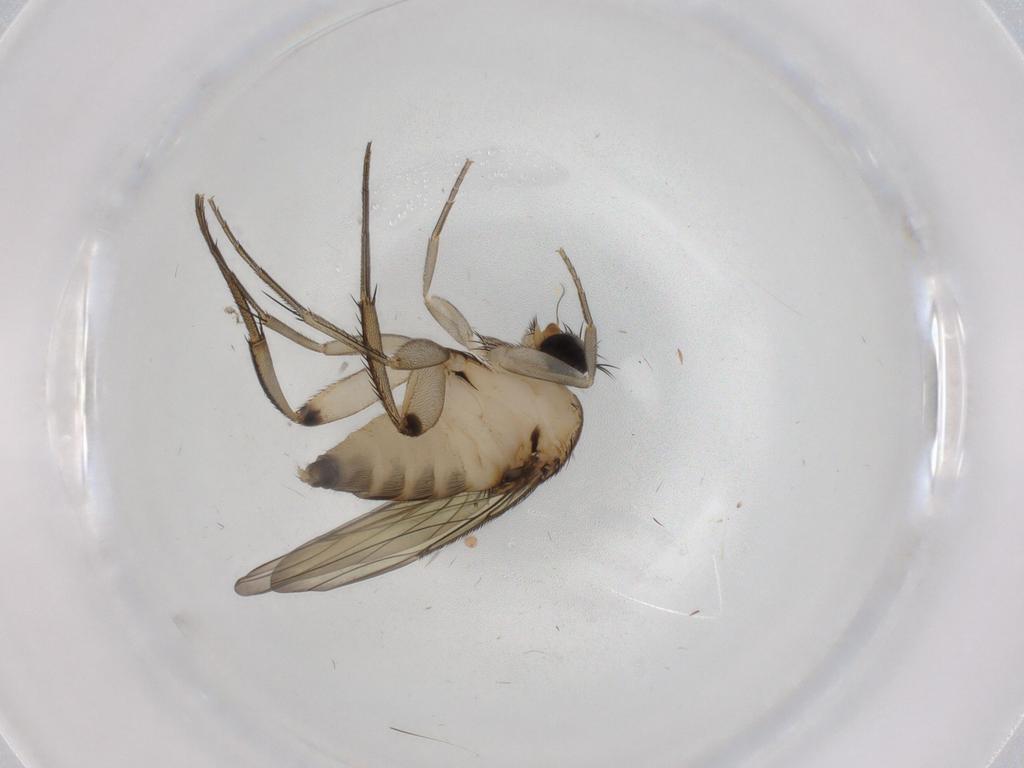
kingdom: Animalia
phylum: Arthropoda
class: Insecta
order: Diptera
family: Phoridae
